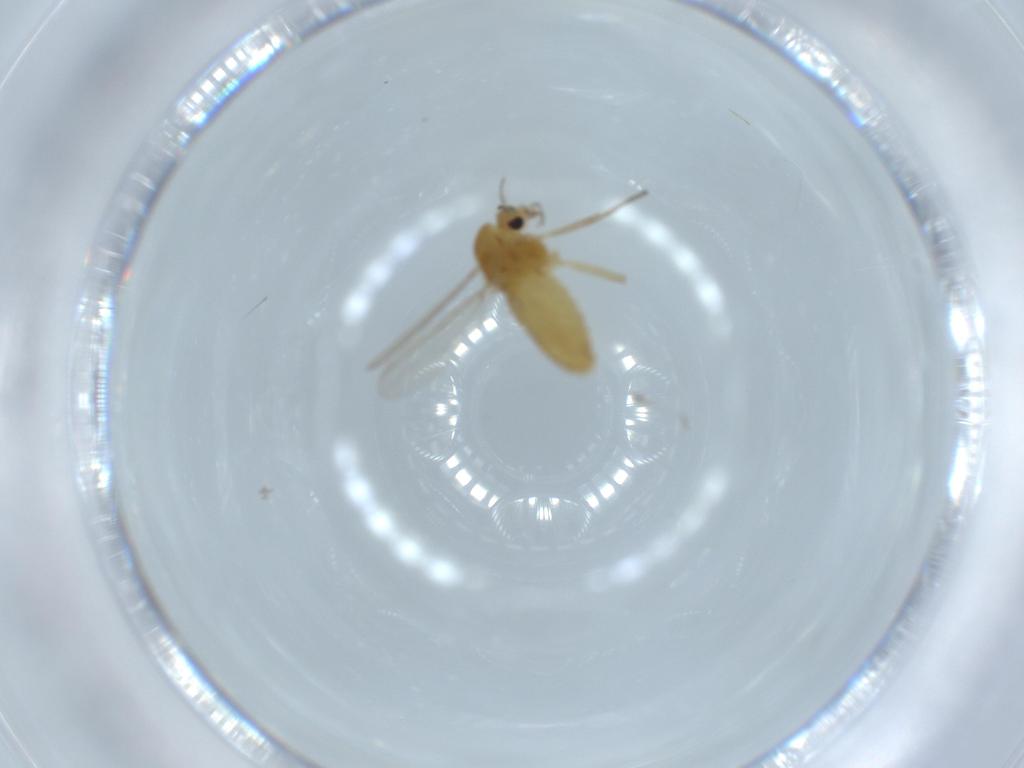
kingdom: Animalia
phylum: Arthropoda
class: Insecta
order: Diptera
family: Chironomidae
